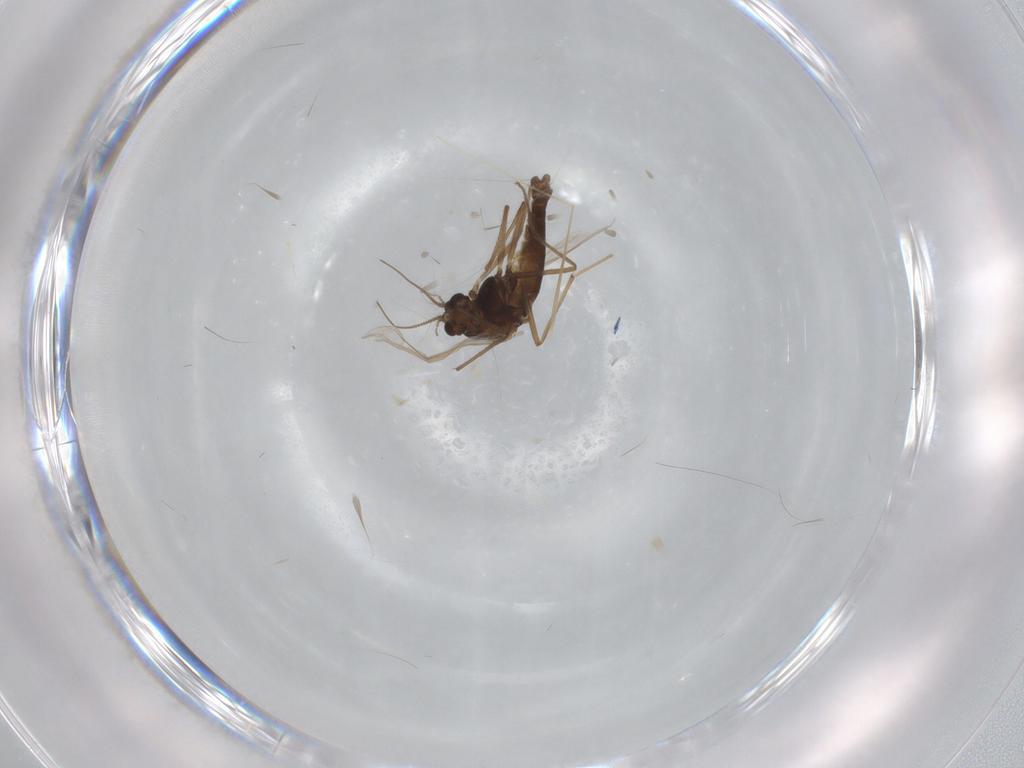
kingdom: Animalia
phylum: Arthropoda
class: Insecta
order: Diptera
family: Chironomidae
